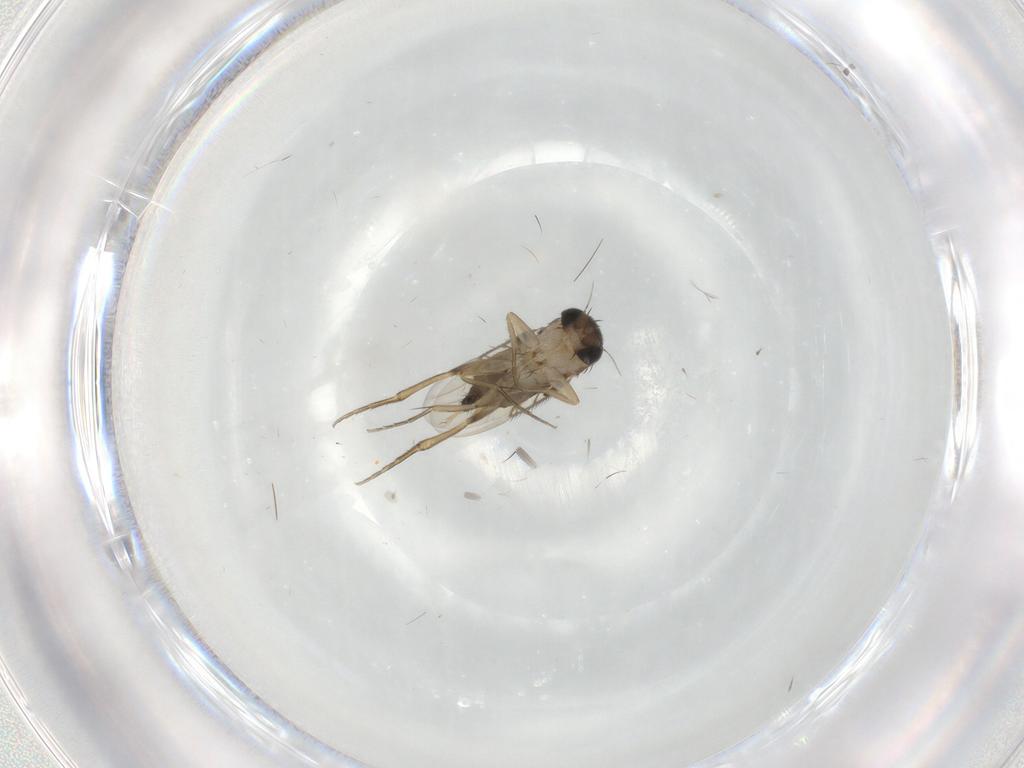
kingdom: Animalia
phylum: Arthropoda
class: Insecta
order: Diptera
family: Phoridae
